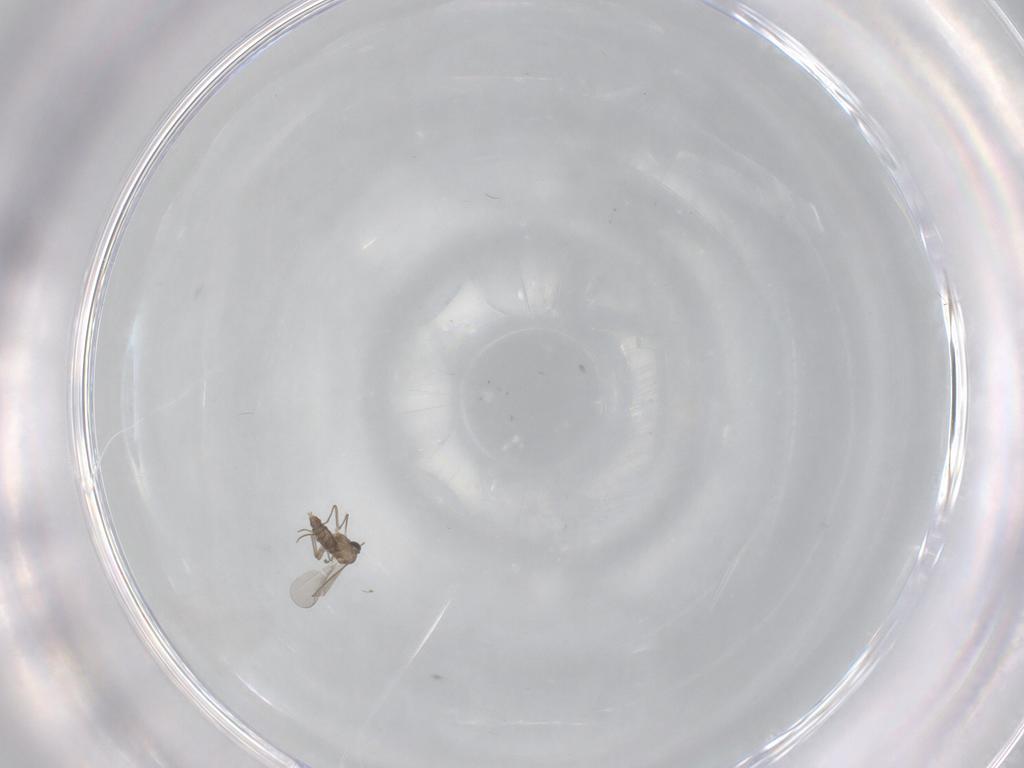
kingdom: Animalia
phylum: Arthropoda
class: Insecta
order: Diptera
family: Chironomidae
